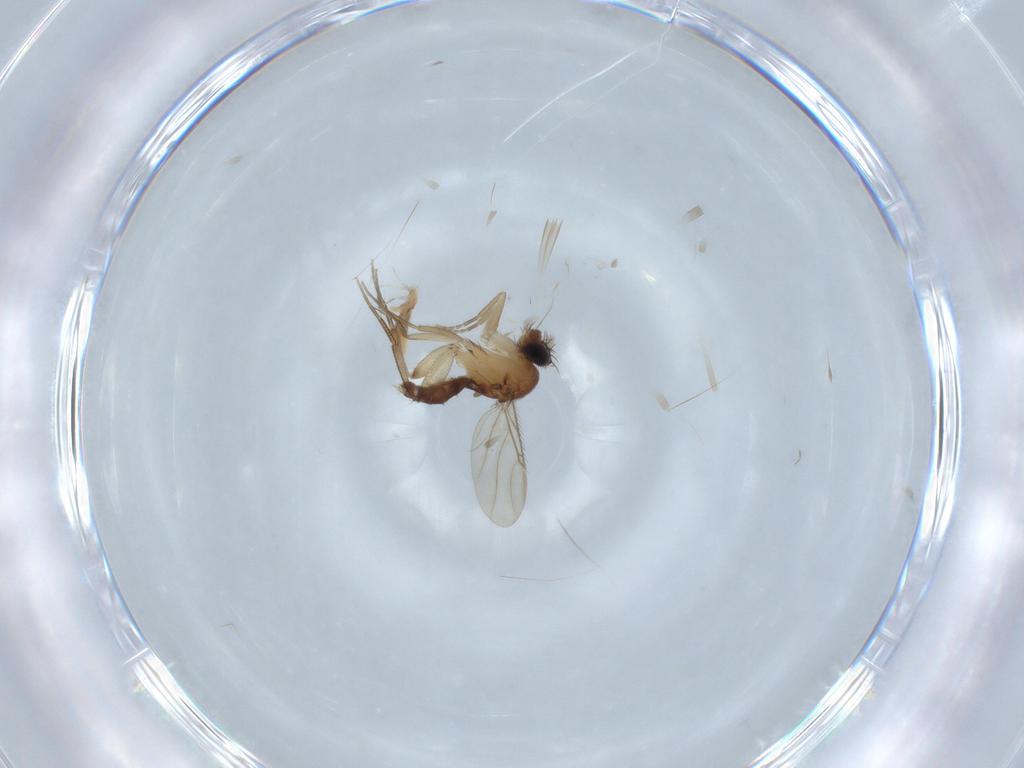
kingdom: Animalia
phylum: Arthropoda
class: Insecta
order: Diptera
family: Phoridae
